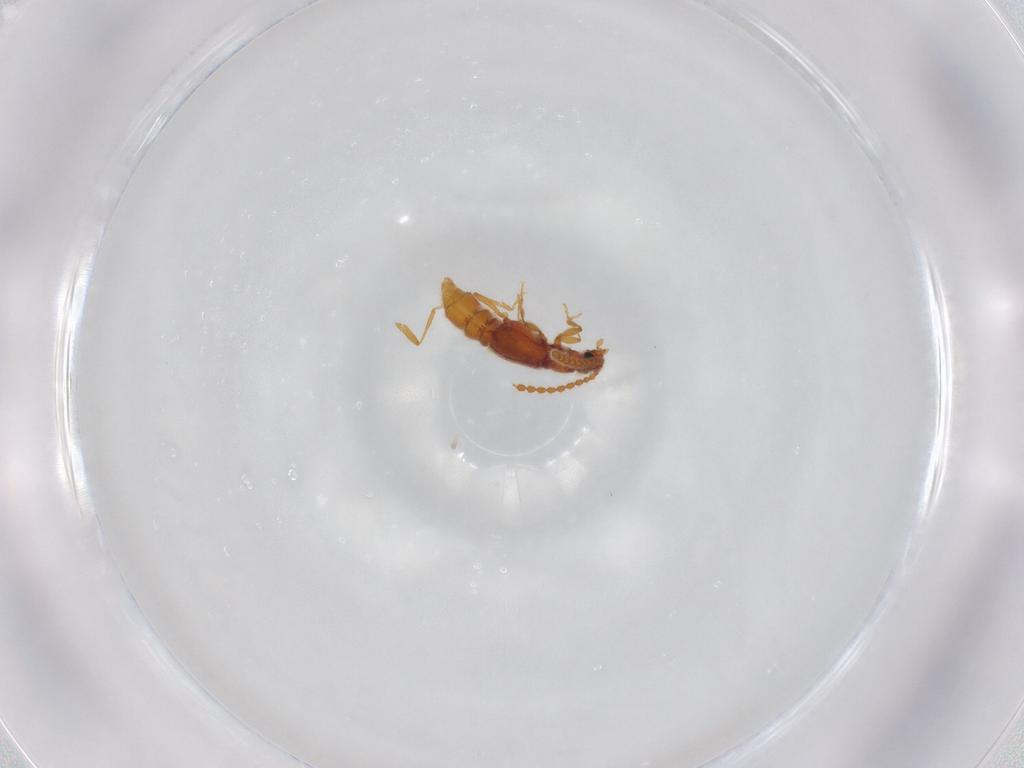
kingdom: Animalia
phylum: Arthropoda
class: Insecta
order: Coleoptera
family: Staphylinidae
